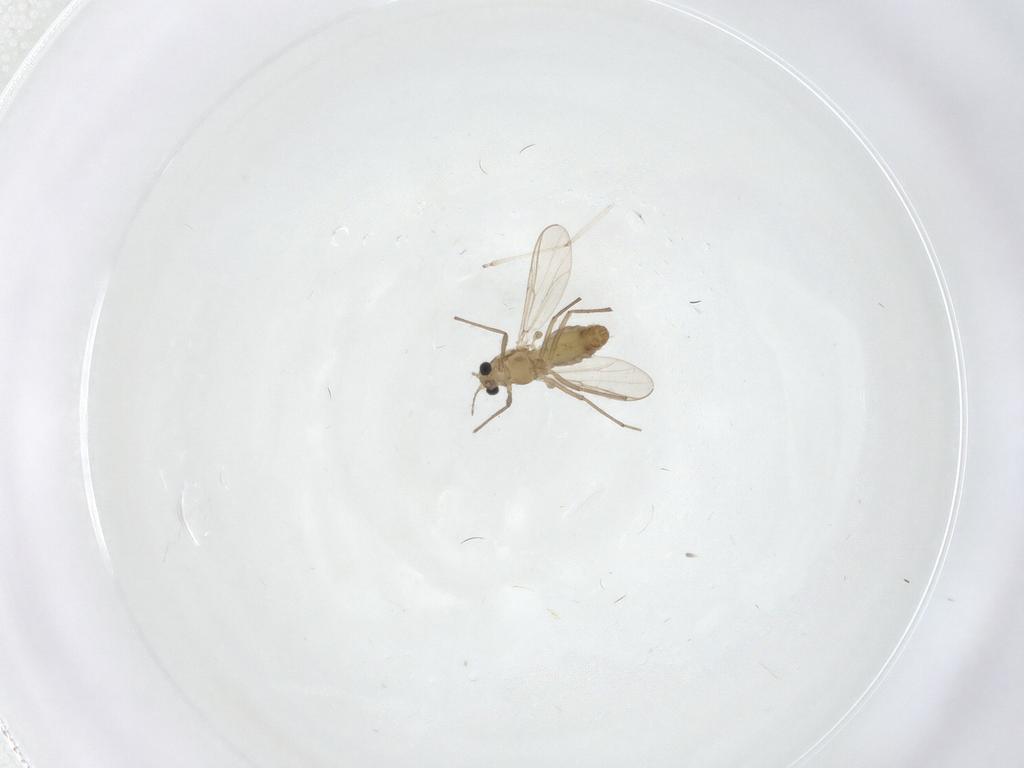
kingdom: Animalia
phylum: Arthropoda
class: Insecta
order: Diptera
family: Chironomidae
